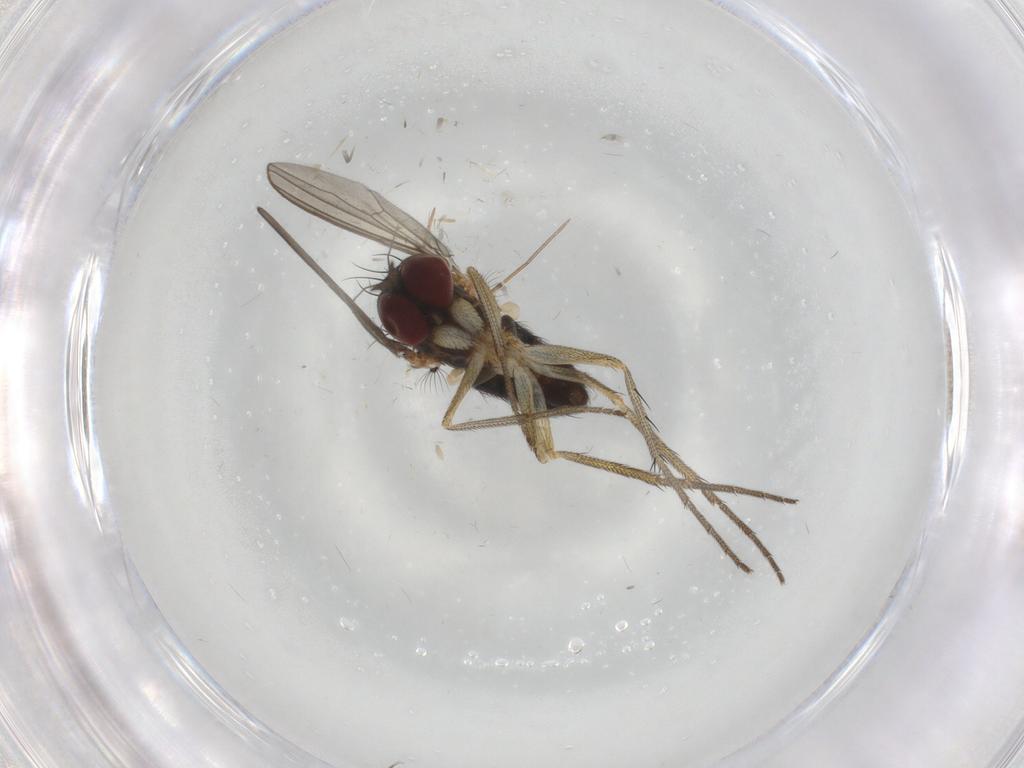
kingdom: Animalia
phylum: Arthropoda
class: Insecta
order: Diptera
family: Dolichopodidae
